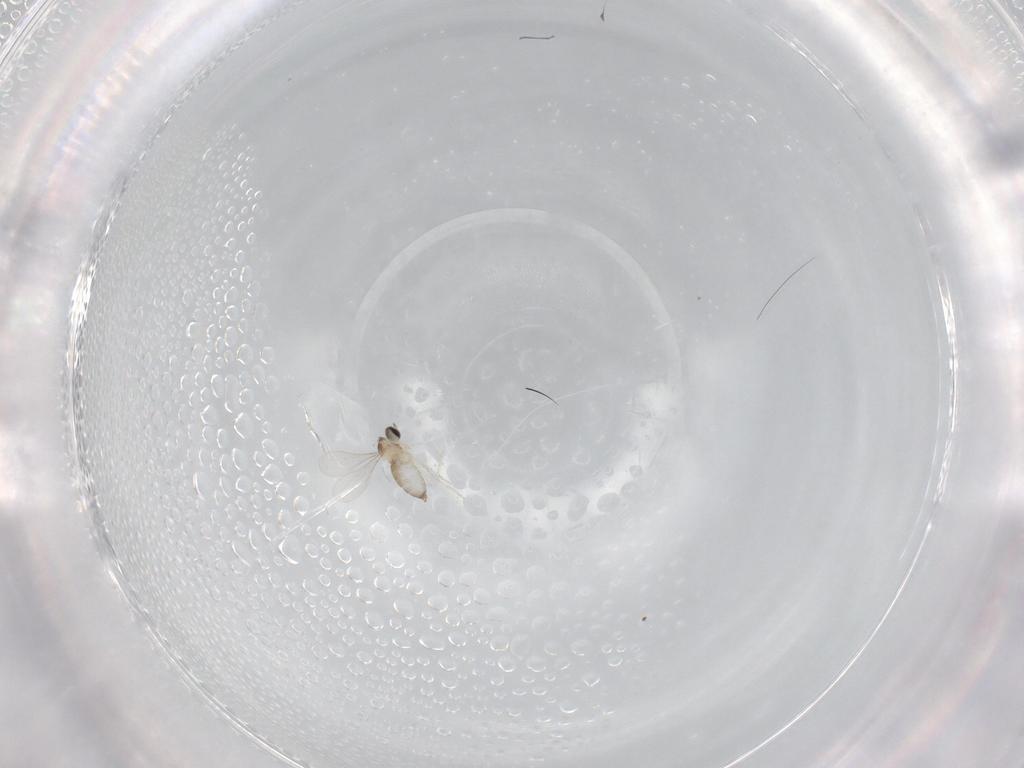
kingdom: Animalia
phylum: Arthropoda
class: Insecta
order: Diptera
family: Cecidomyiidae
